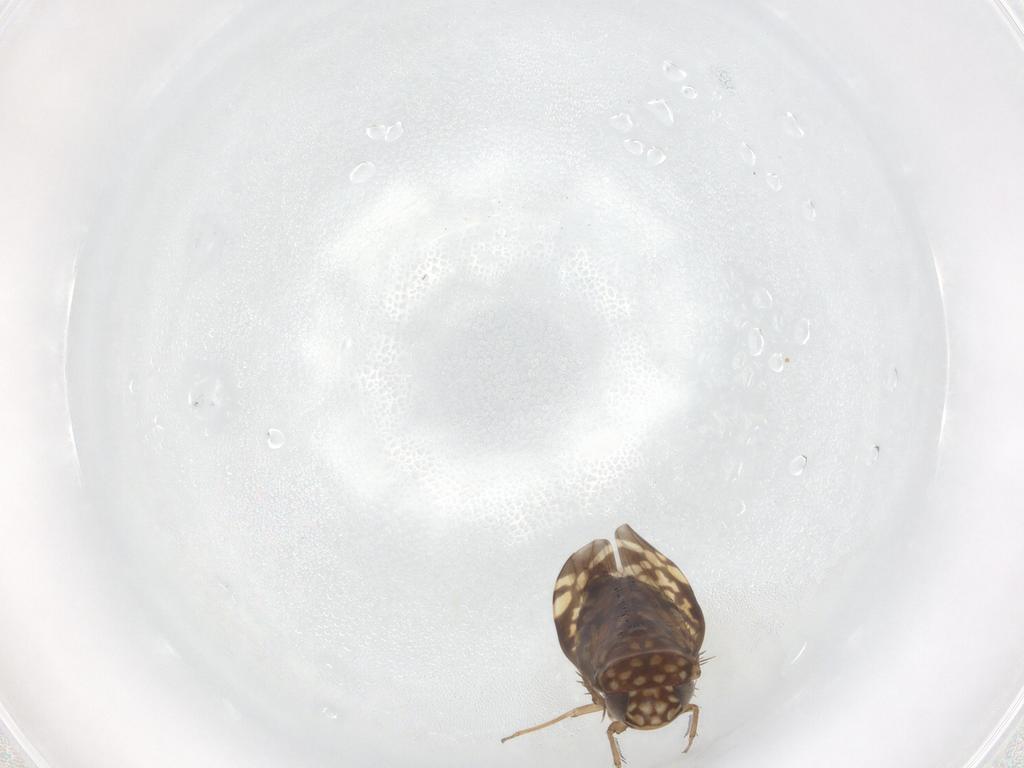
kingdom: Animalia
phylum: Arthropoda
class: Insecta
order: Hemiptera
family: Cicadellidae
